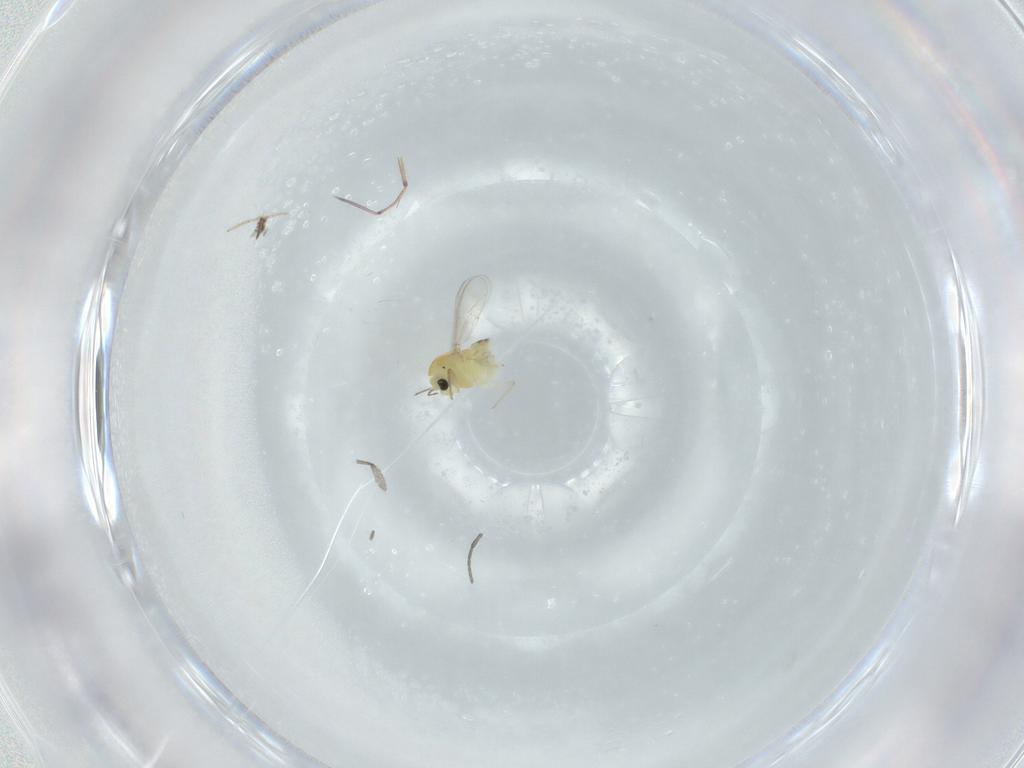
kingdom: Animalia
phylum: Arthropoda
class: Insecta
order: Diptera
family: Chironomidae
